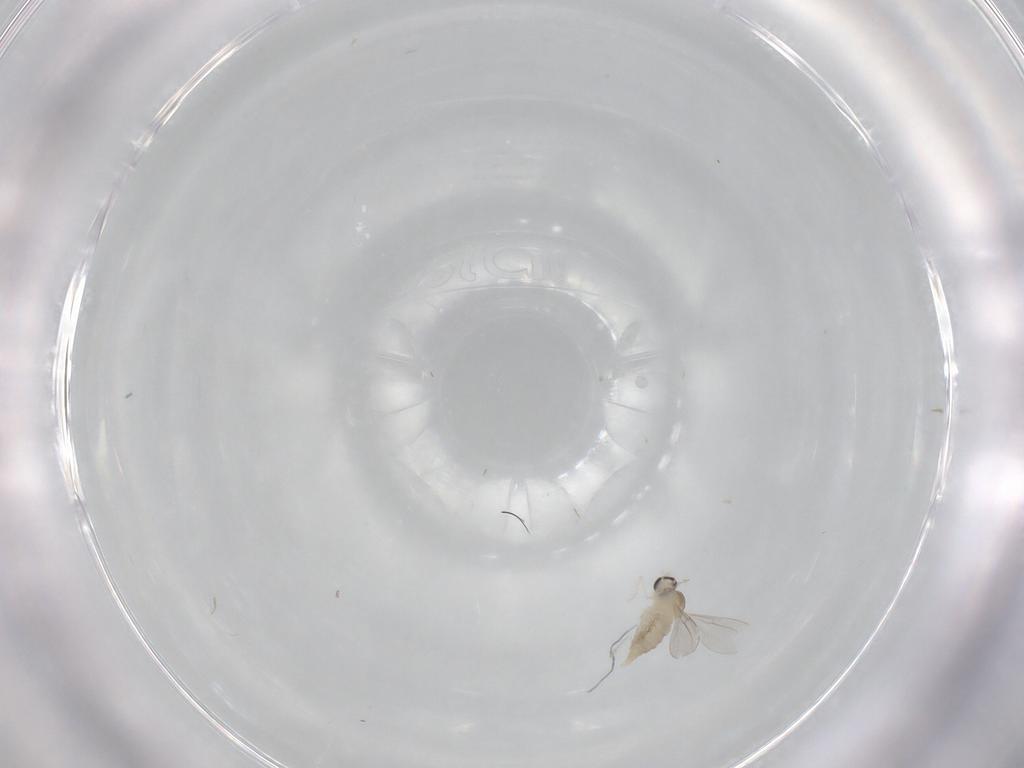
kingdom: Animalia
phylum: Arthropoda
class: Insecta
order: Diptera
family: Cecidomyiidae
